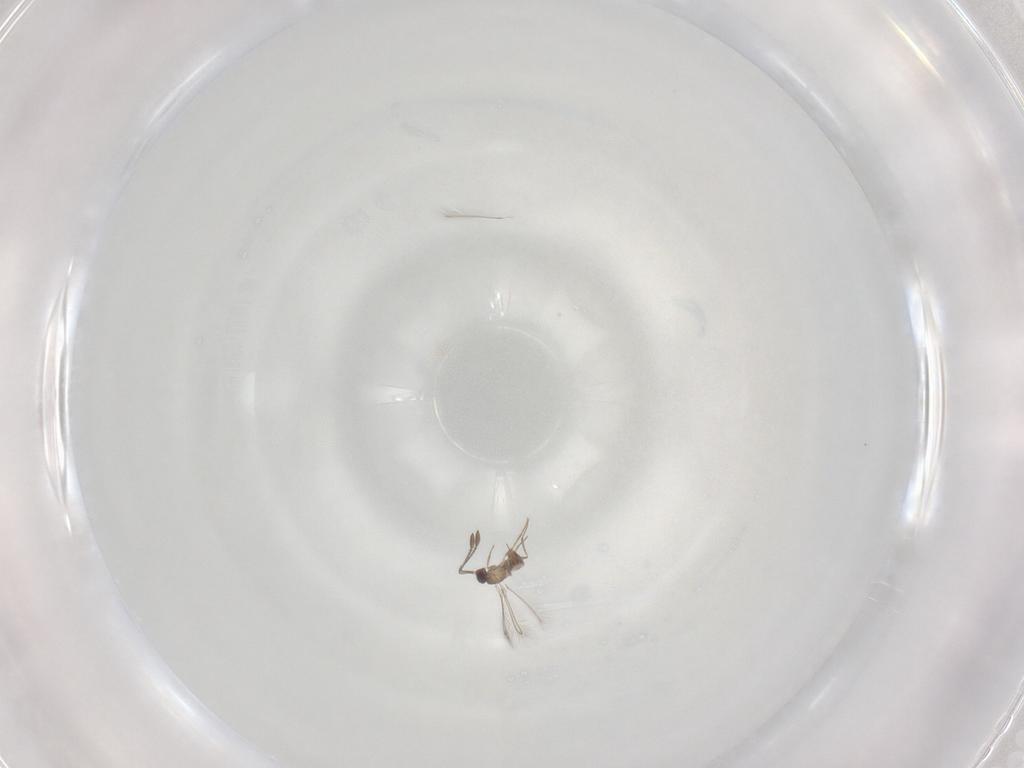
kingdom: Animalia
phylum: Arthropoda
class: Insecta
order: Hymenoptera
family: Mymaridae
